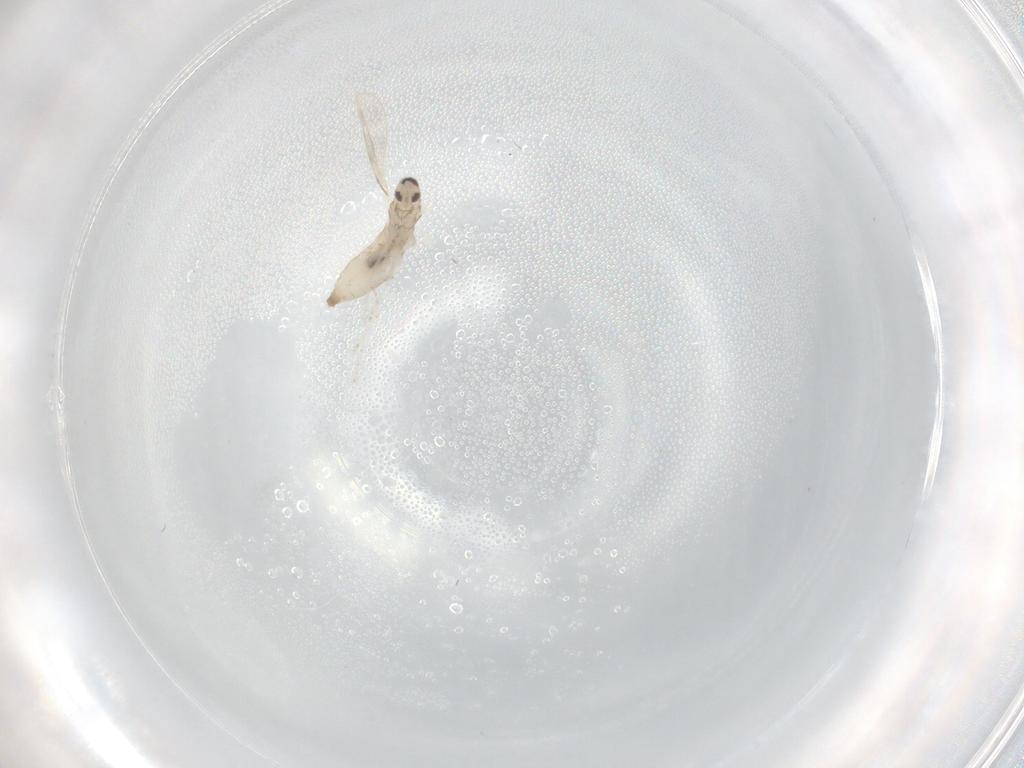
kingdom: Animalia
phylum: Arthropoda
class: Insecta
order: Diptera
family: Cecidomyiidae
